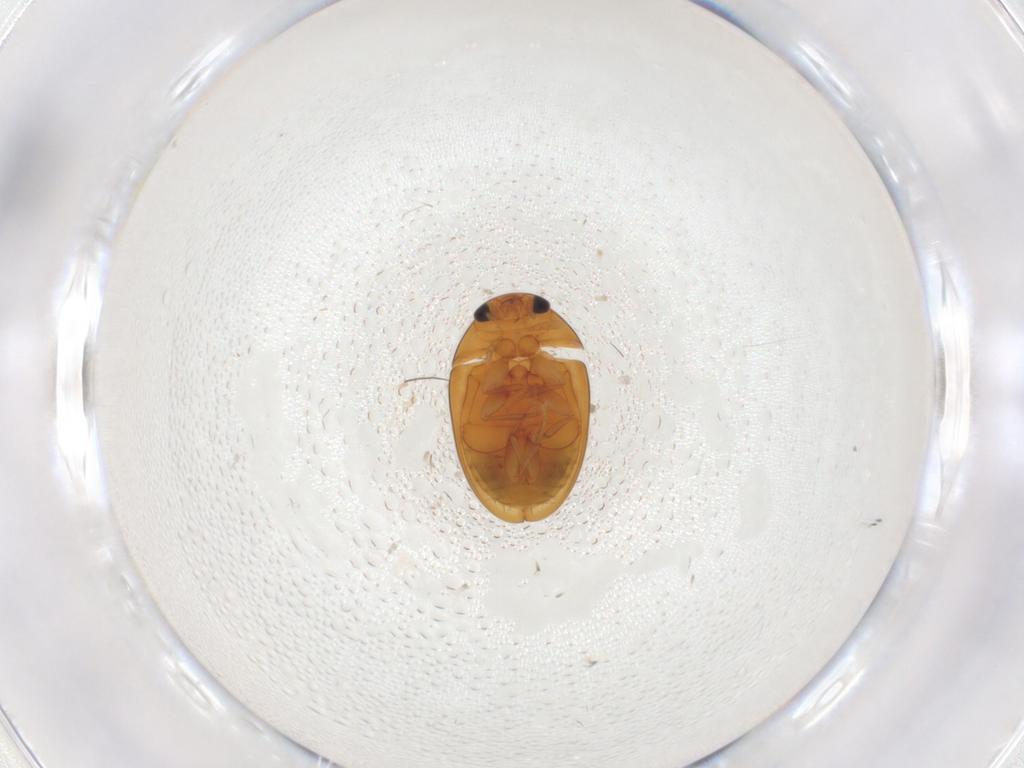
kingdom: Animalia
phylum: Arthropoda
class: Insecta
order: Coleoptera
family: Phalacridae
